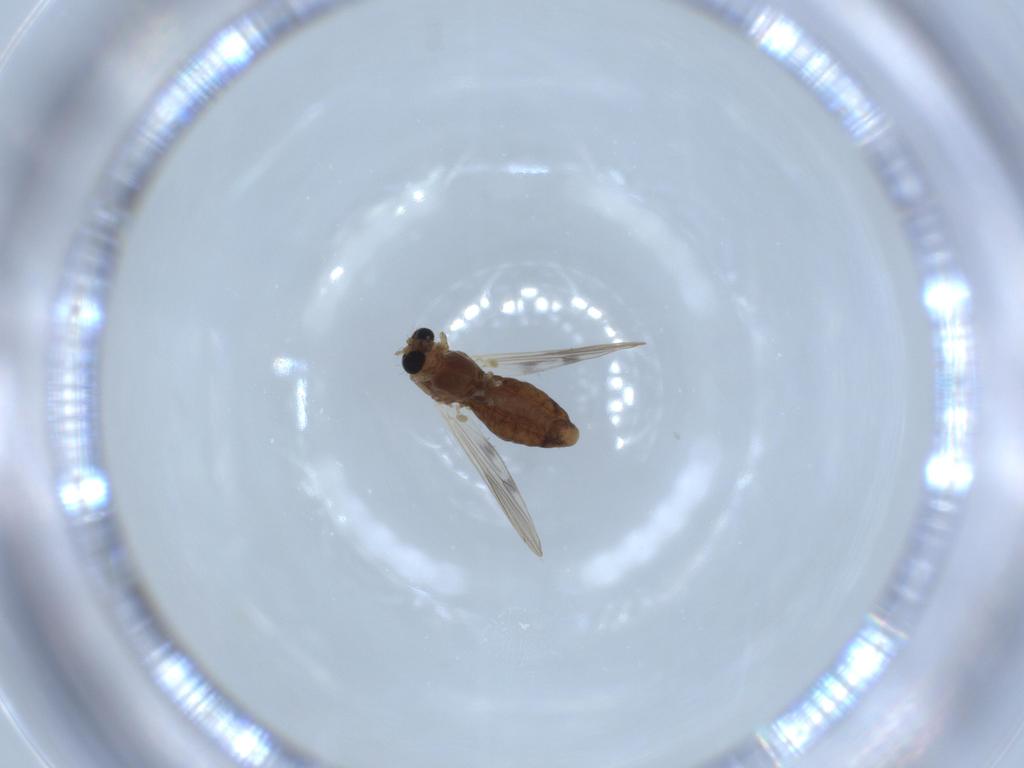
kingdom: Animalia
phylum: Arthropoda
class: Insecta
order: Diptera
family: Chironomidae
